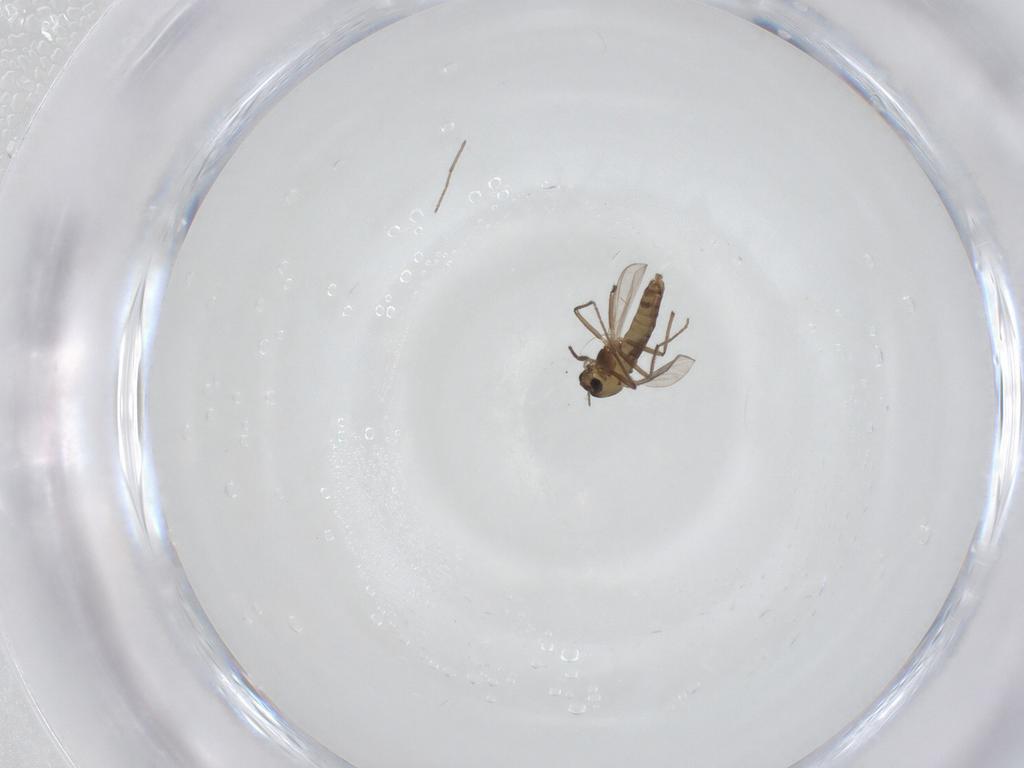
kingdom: Animalia
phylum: Arthropoda
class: Insecta
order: Diptera
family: Chironomidae
